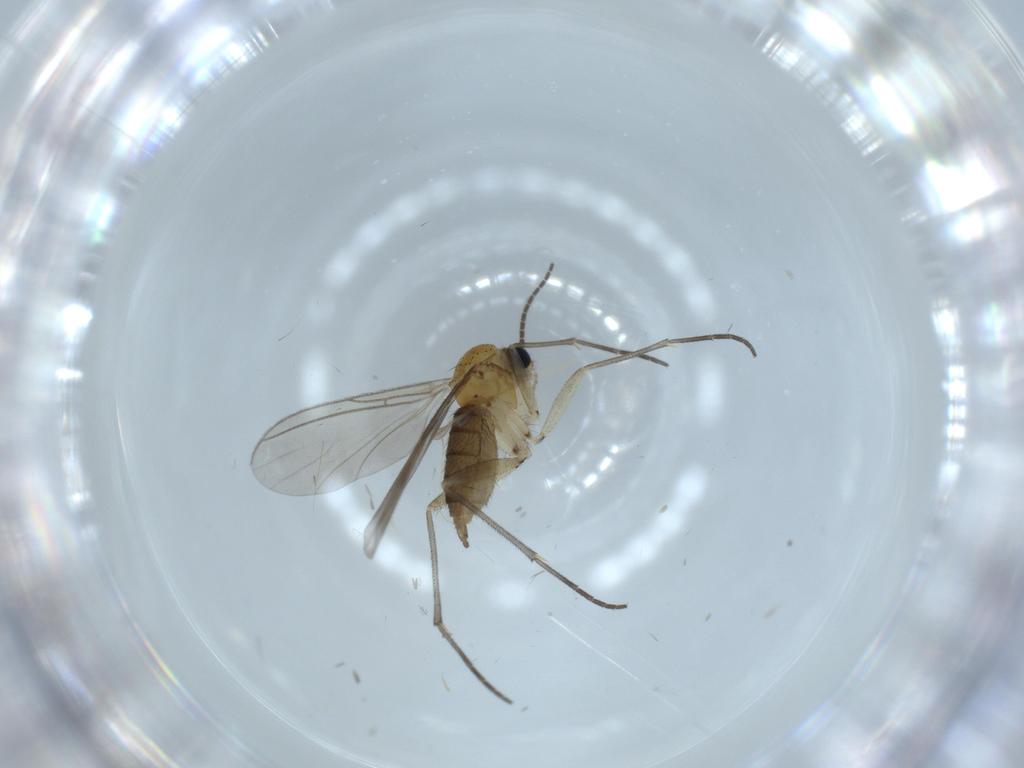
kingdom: Animalia
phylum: Arthropoda
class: Insecta
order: Diptera
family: Sciaridae
